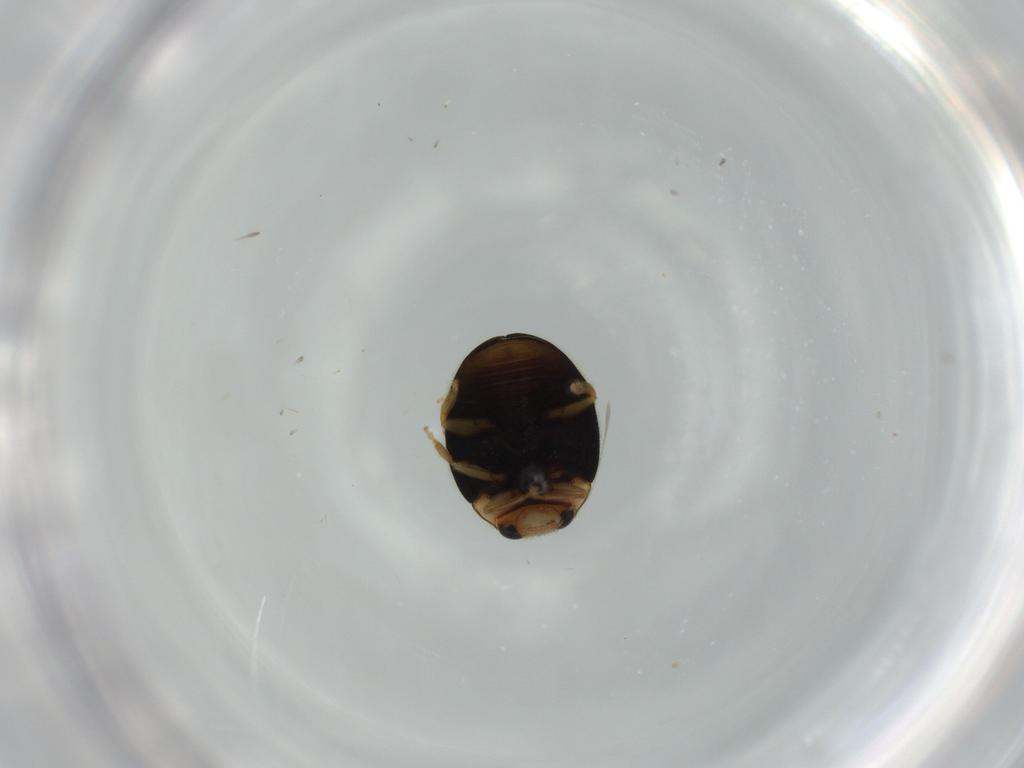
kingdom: Animalia
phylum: Arthropoda
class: Insecta
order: Coleoptera
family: Coccinellidae
